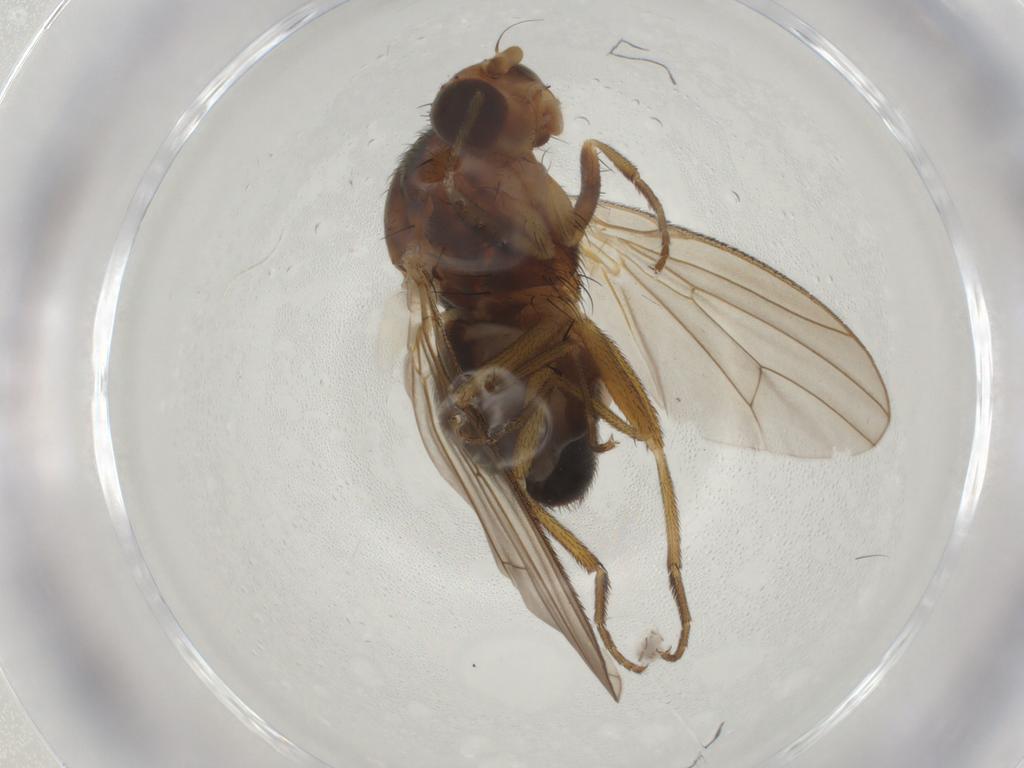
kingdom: Animalia
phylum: Arthropoda
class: Insecta
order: Diptera
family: Heleomyzidae
